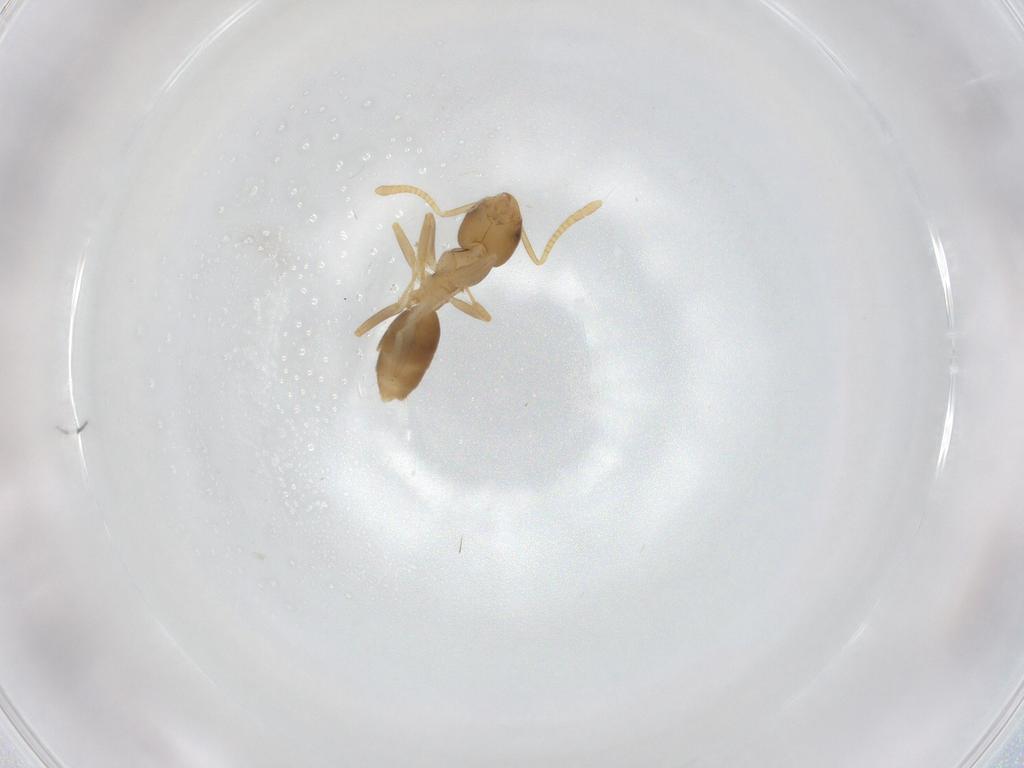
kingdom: Animalia
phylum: Arthropoda
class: Insecta
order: Hymenoptera
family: Formicidae
